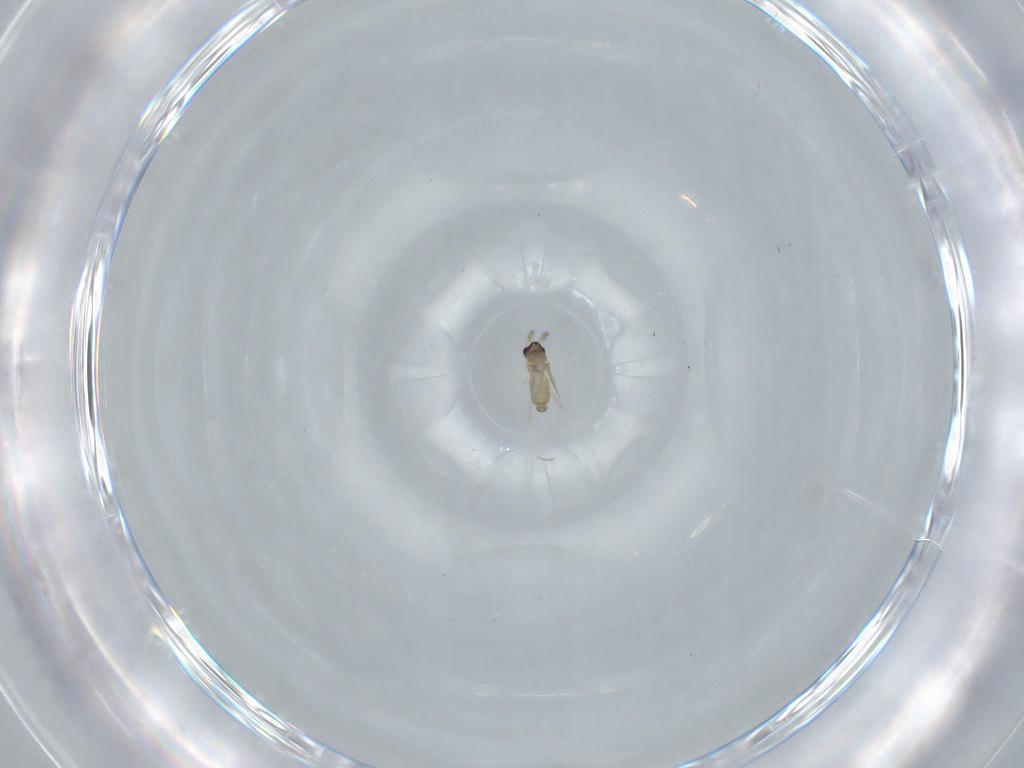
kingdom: Animalia
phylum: Arthropoda
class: Insecta
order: Diptera
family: Cecidomyiidae
